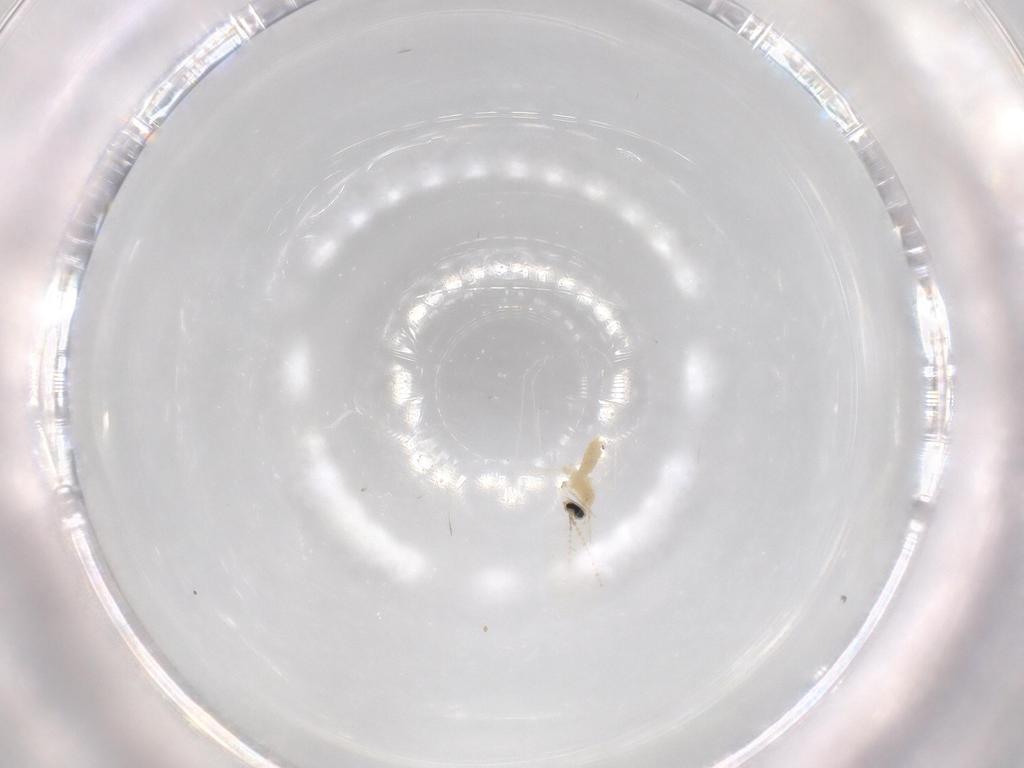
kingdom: Animalia
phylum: Arthropoda
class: Insecta
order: Diptera
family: Cecidomyiidae
